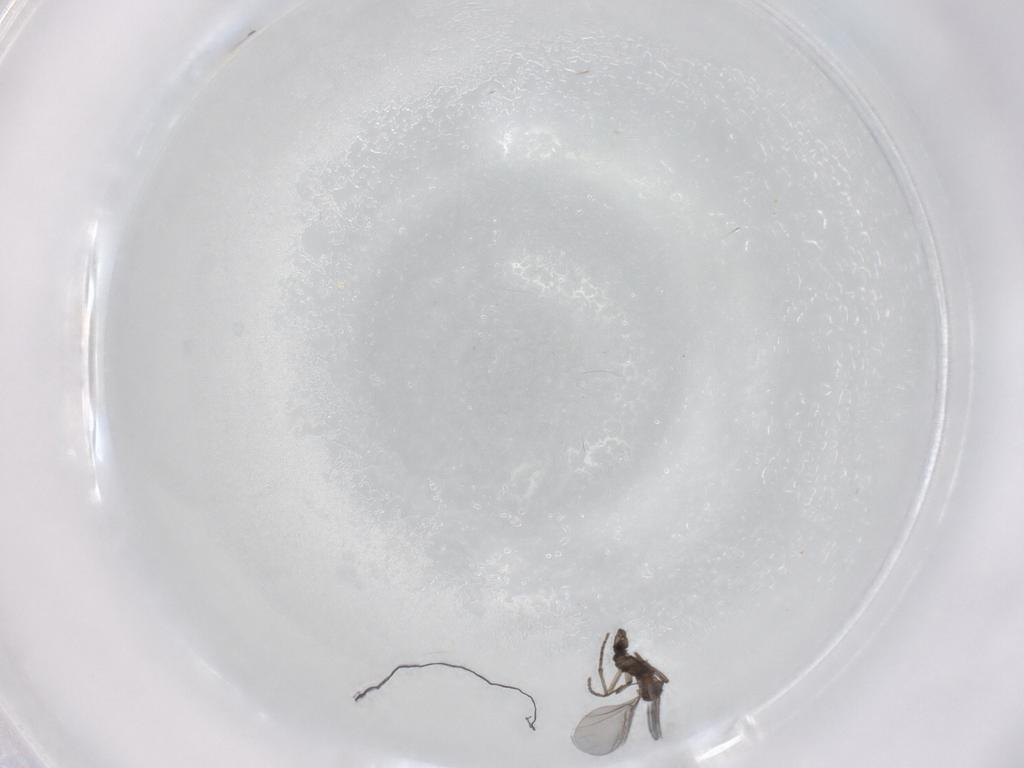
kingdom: Animalia
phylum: Arthropoda
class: Insecta
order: Diptera
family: Sciaridae
